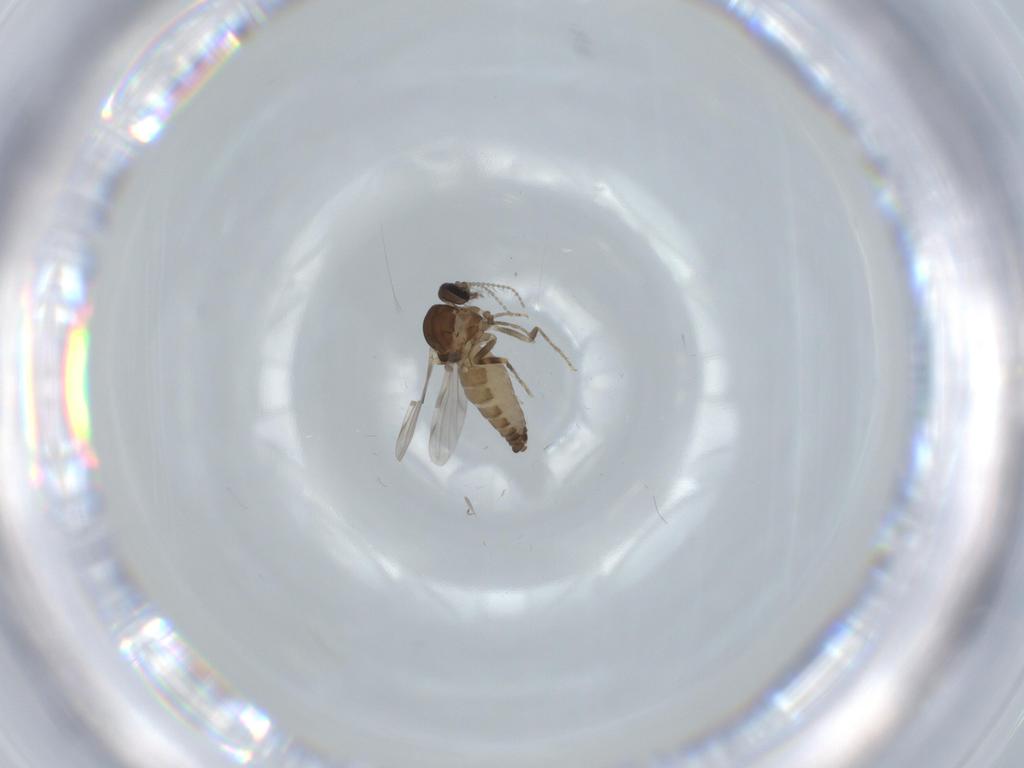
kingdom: Animalia
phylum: Arthropoda
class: Insecta
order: Diptera
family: Ceratopogonidae
